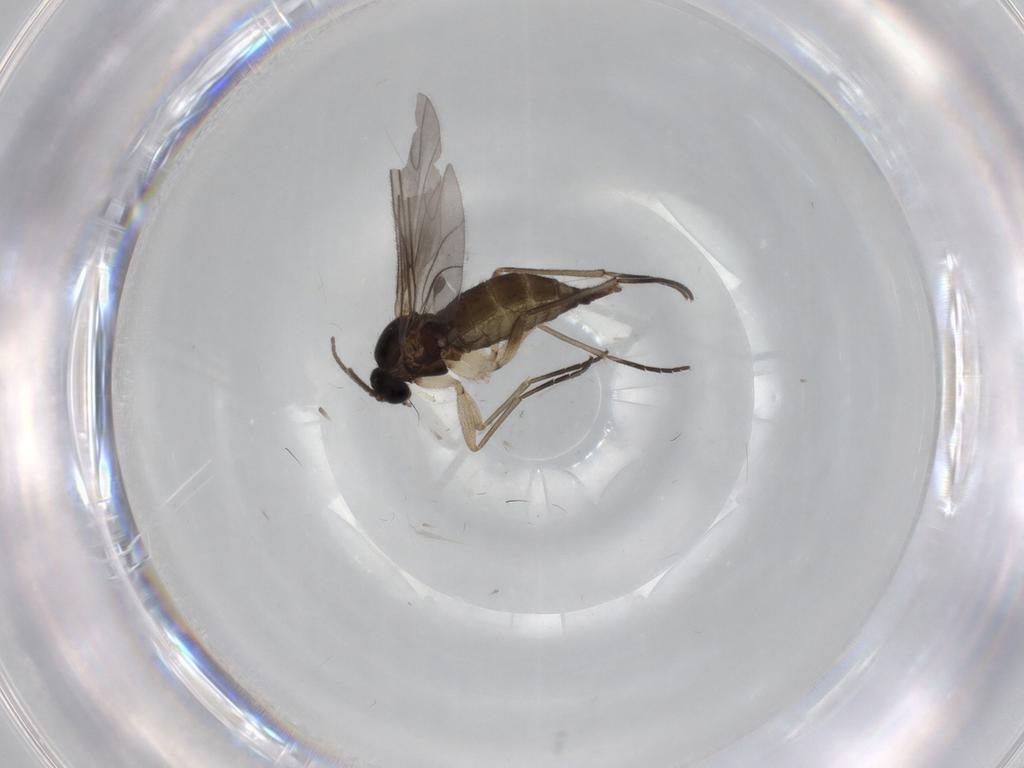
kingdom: Animalia
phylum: Arthropoda
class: Insecta
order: Diptera
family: Sciaridae
